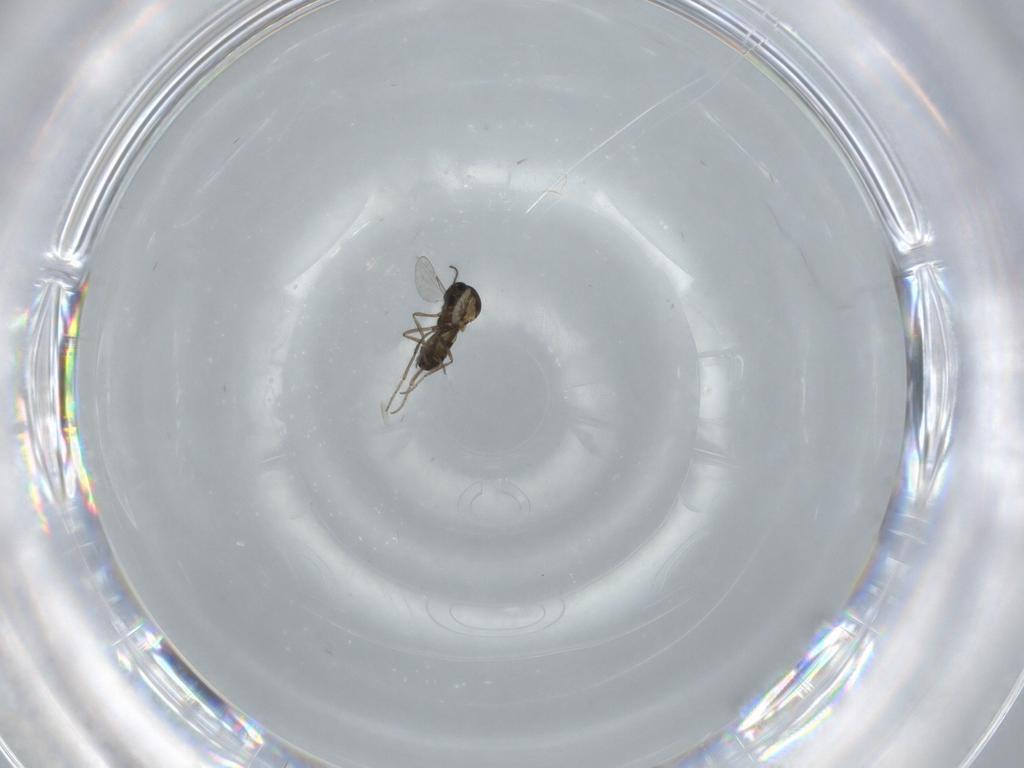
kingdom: Animalia
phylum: Arthropoda
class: Insecta
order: Diptera
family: Ceratopogonidae
